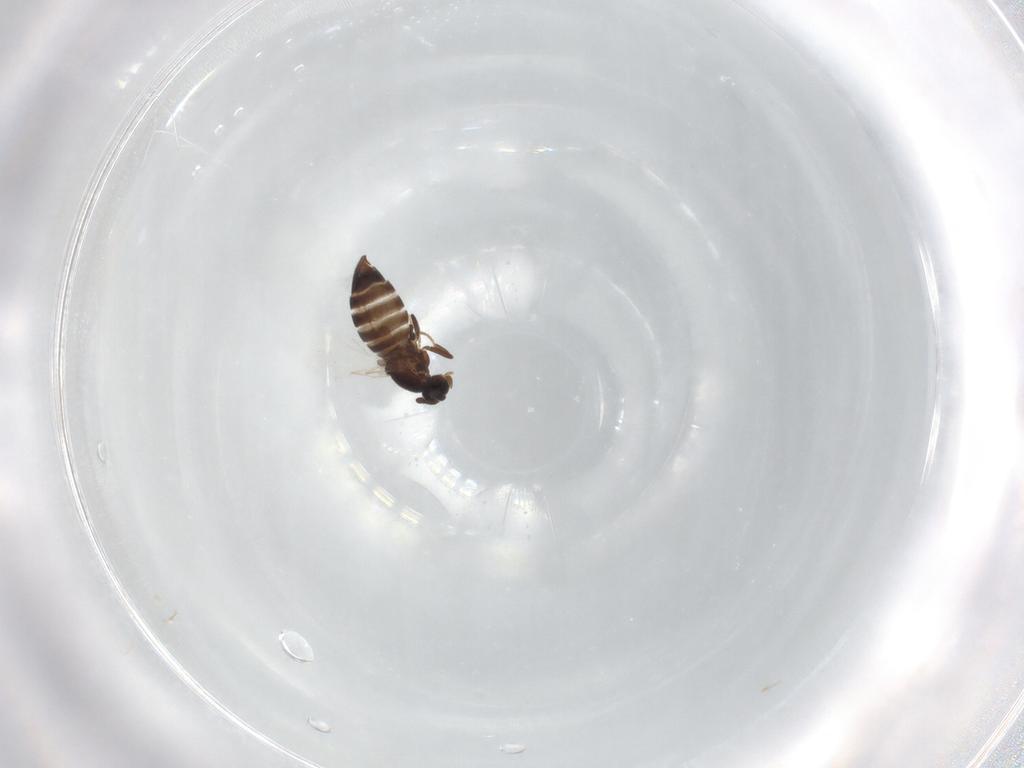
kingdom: Animalia
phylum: Arthropoda
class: Insecta
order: Diptera
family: Scatopsidae
